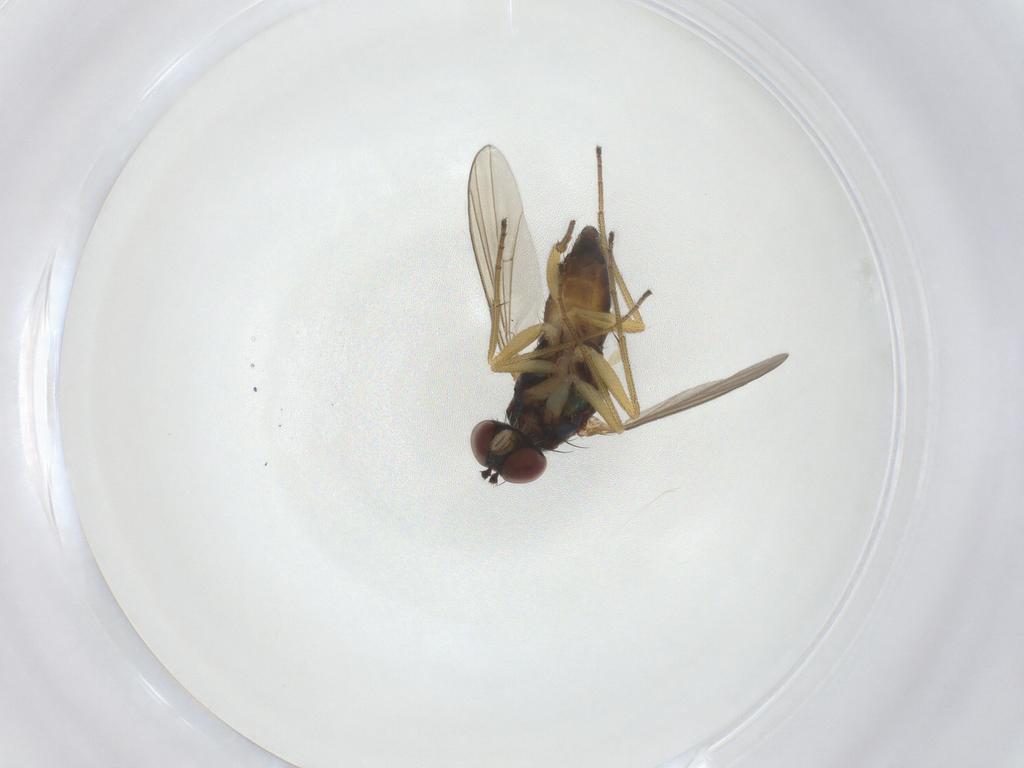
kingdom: Animalia
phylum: Arthropoda
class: Insecta
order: Diptera
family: Dolichopodidae
